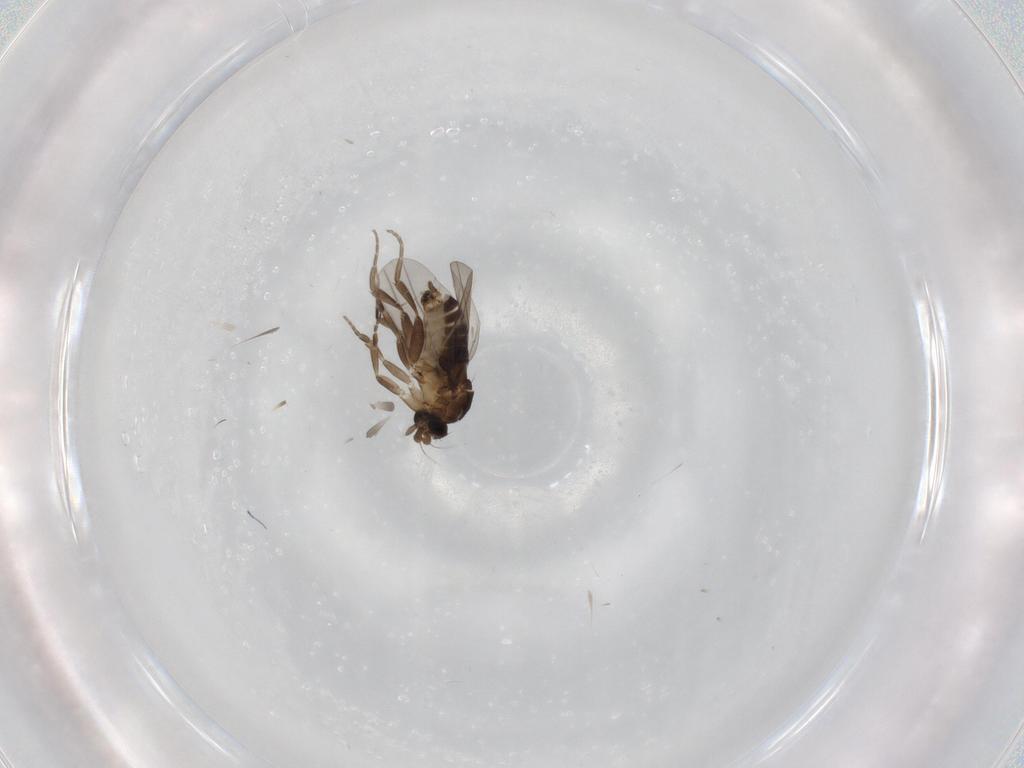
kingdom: Animalia
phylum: Arthropoda
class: Insecta
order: Diptera
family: Phoridae
